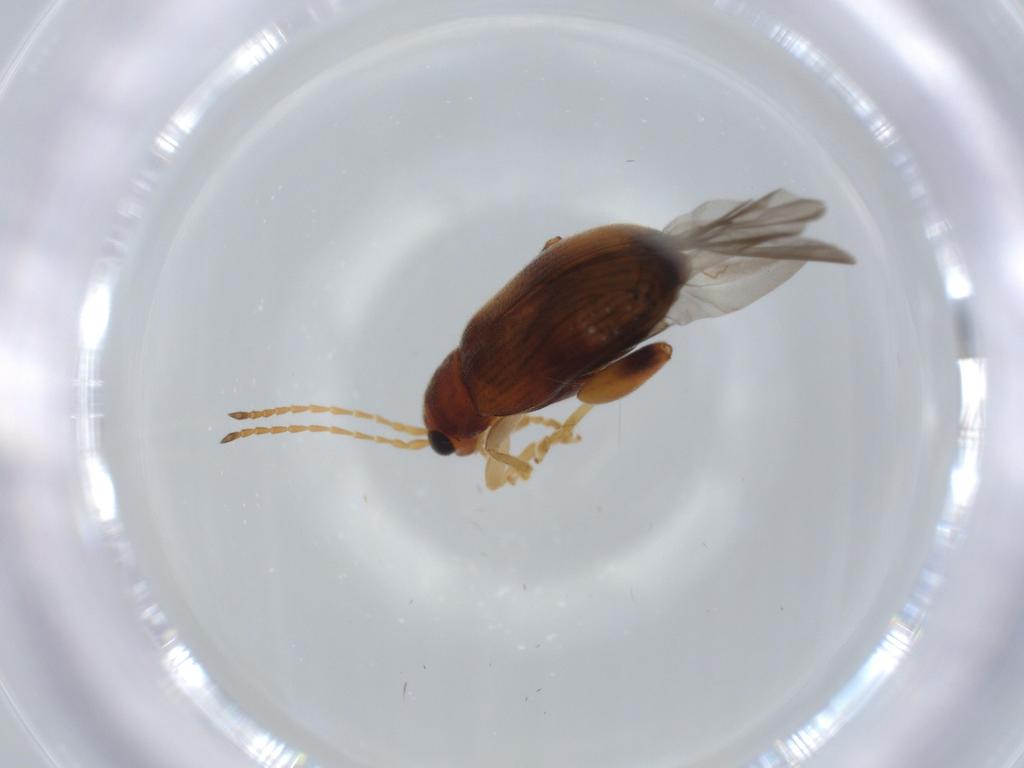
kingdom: Animalia
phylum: Arthropoda
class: Insecta
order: Coleoptera
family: Chrysomelidae
